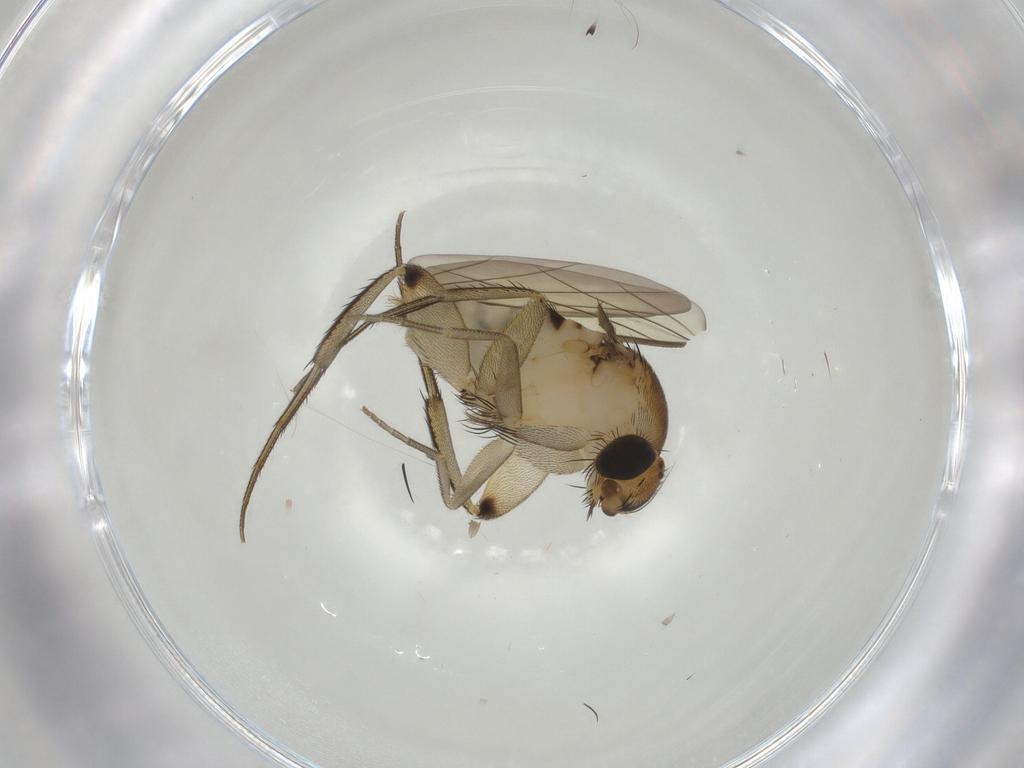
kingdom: Animalia
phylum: Arthropoda
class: Insecta
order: Diptera
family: Phoridae
